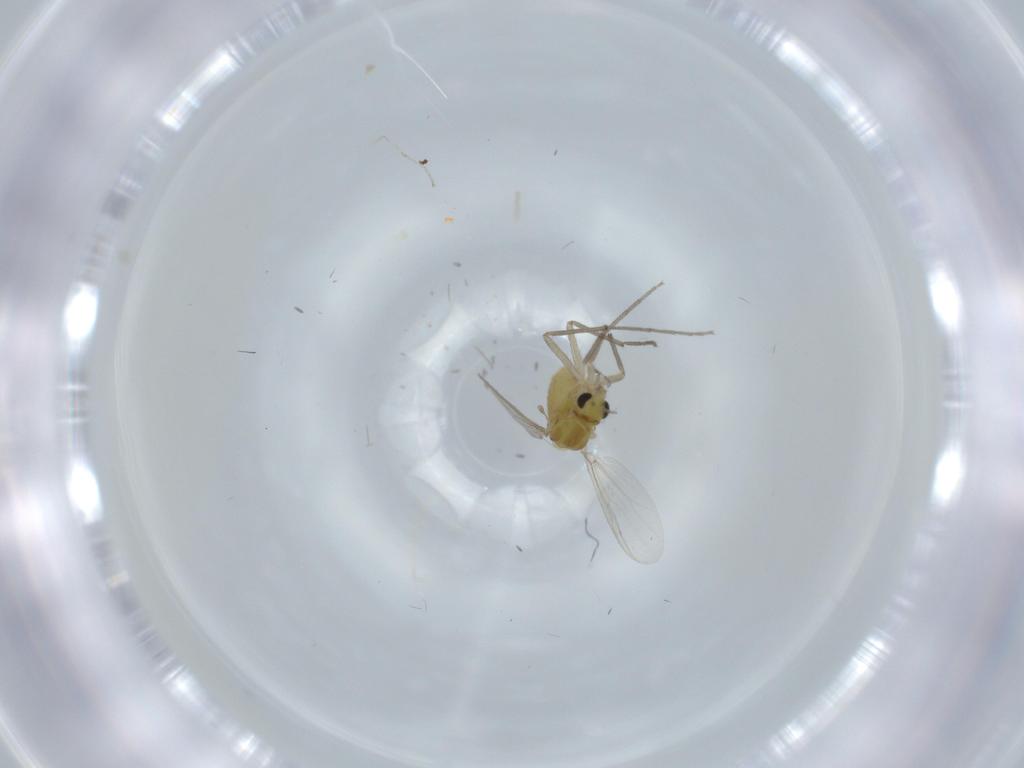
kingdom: Animalia
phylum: Arthropoda
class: Insecta
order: Diptera
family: Chironomidae
